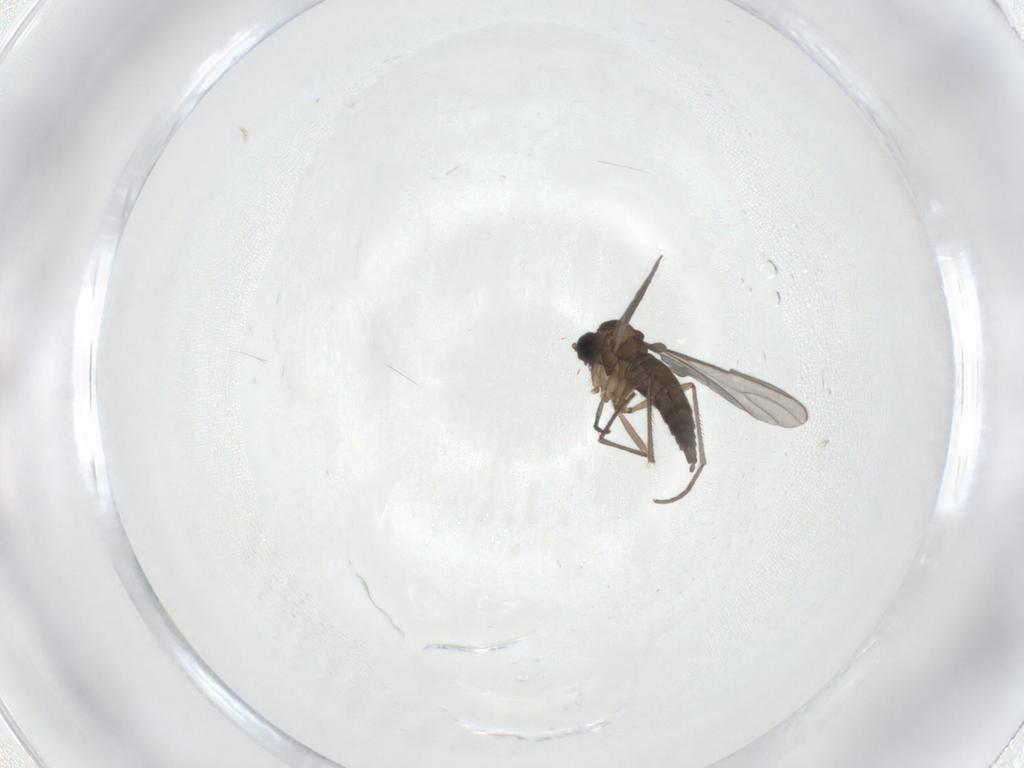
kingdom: Animalia
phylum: Arthropoda
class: Insecta
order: Diptera
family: Sciaridae
